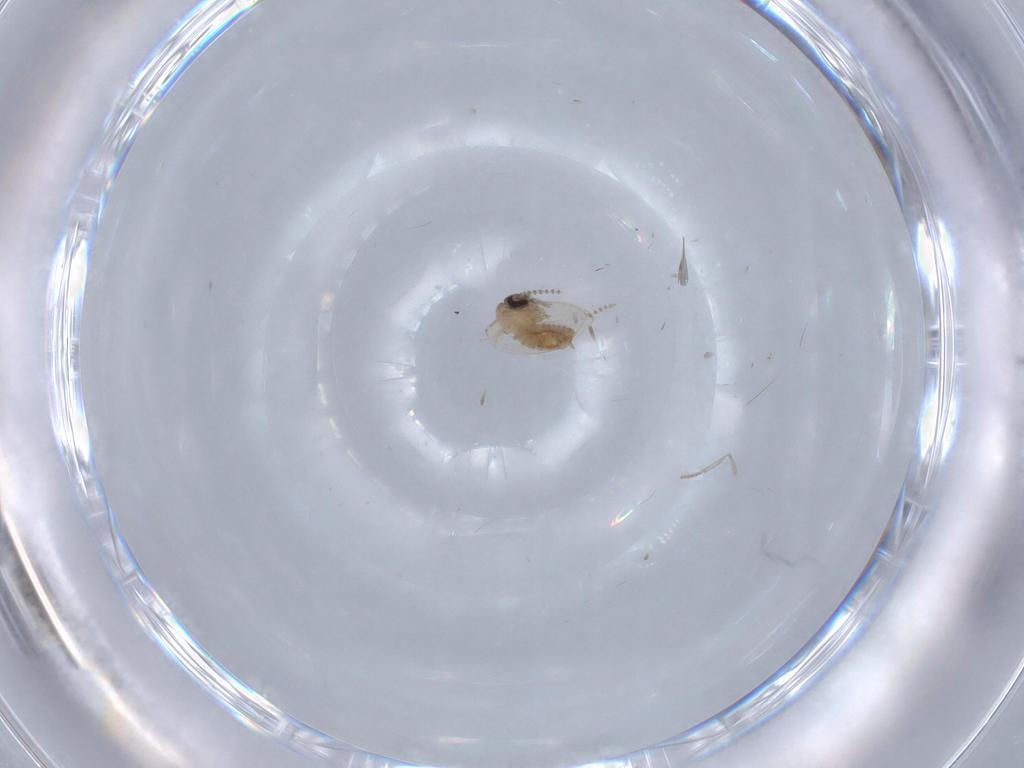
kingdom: Animalia
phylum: Arthropoda
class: Insecta
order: Diptera
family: Psychodidae
